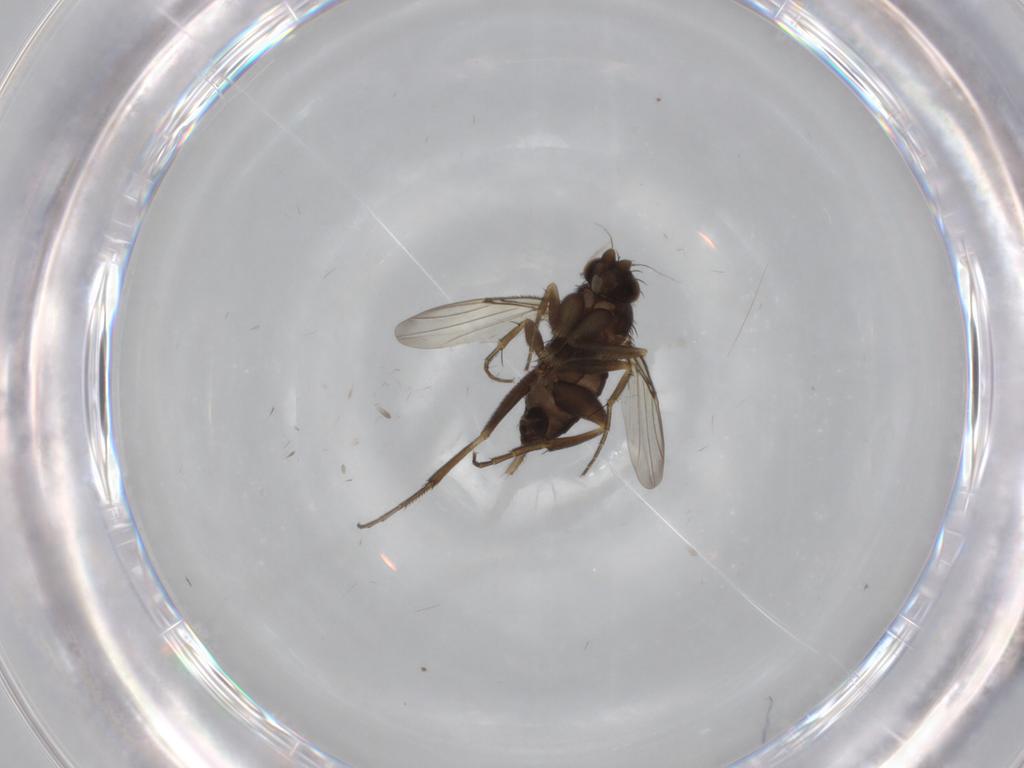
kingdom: Animalia
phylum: Arthropoda
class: Insecta
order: Diptera
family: Phoridae
